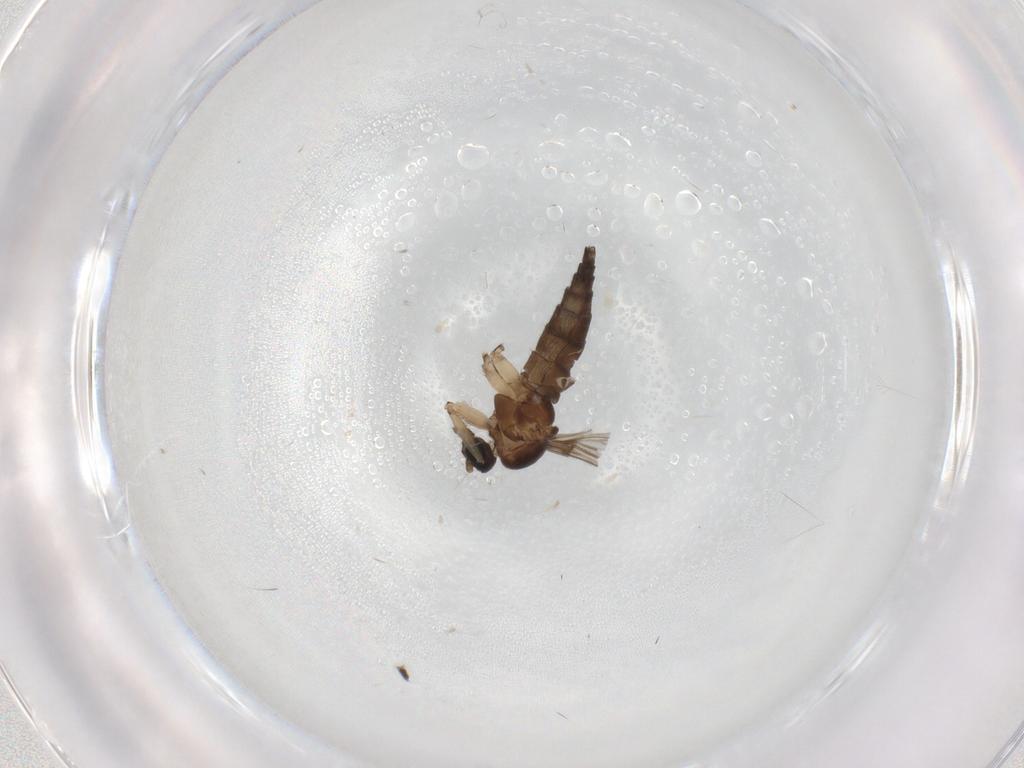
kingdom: Animalia
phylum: Arthropoda
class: Insecta
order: Diptera
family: Sciaridae
